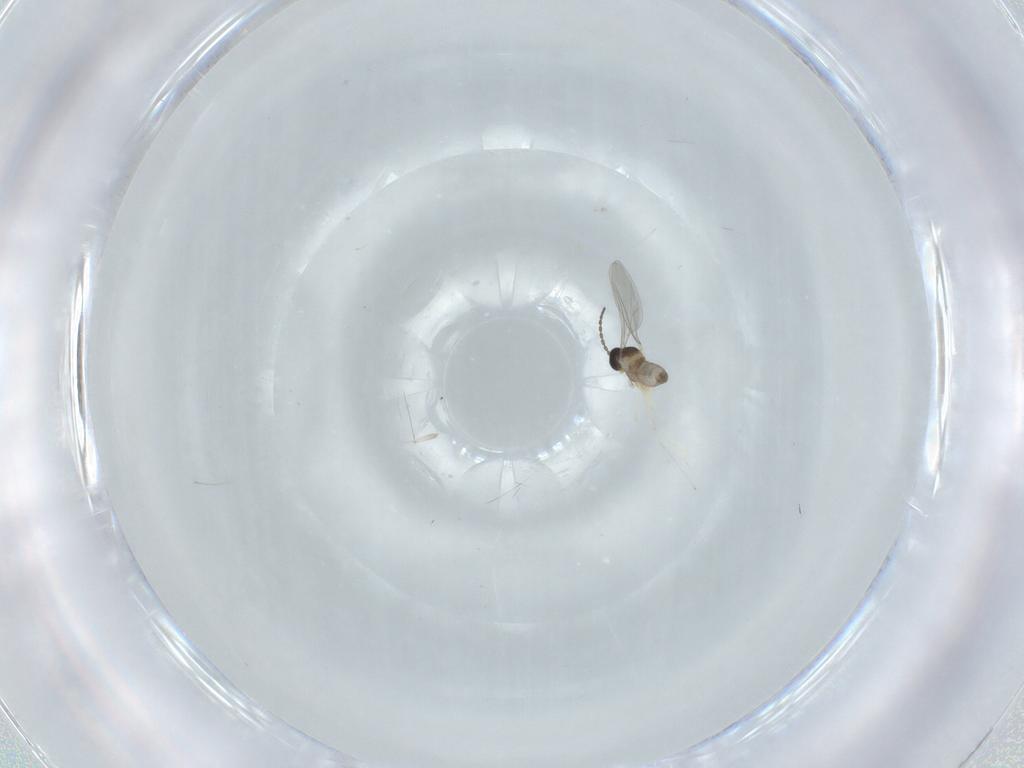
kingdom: Animalia
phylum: Arthropoda
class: Insecta
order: Diptera
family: Cecidomyiidae
